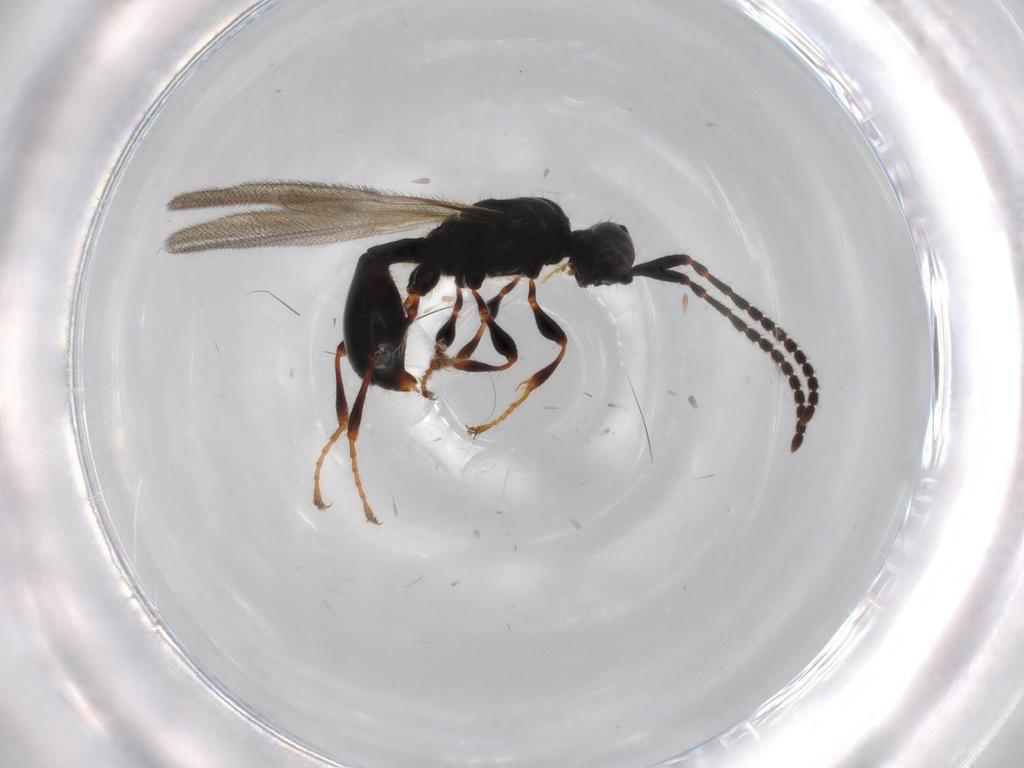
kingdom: Animalia
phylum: Arthropoda
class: Insecta
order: Hymenoptera
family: Diapriidae
